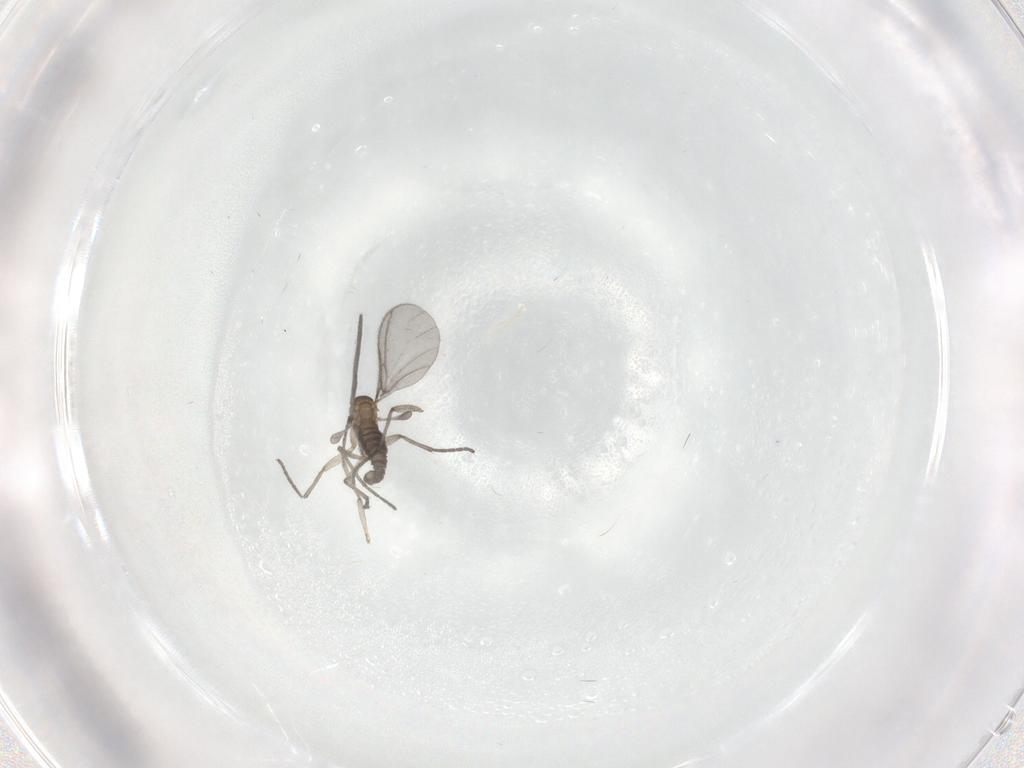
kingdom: Animalia
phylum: Arthropoda
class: Insecta
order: Diptera
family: Sciaridae
